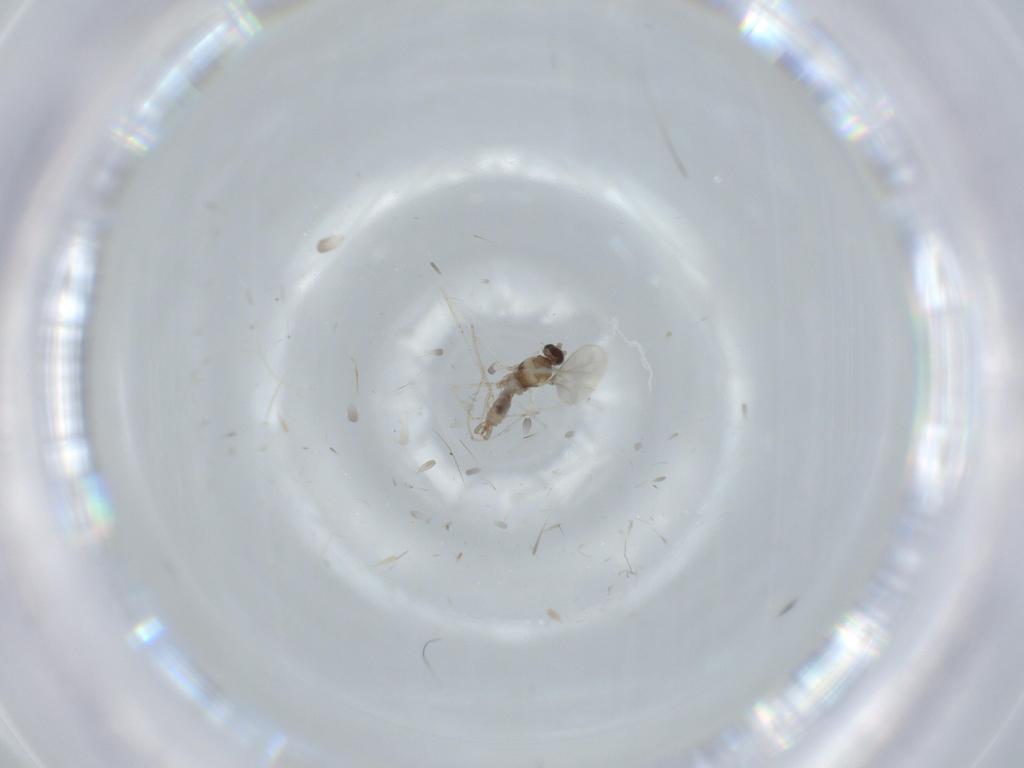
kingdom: Animalia
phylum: Arthropoda
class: Insecta
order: Diptera
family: Cecidomyiidae
